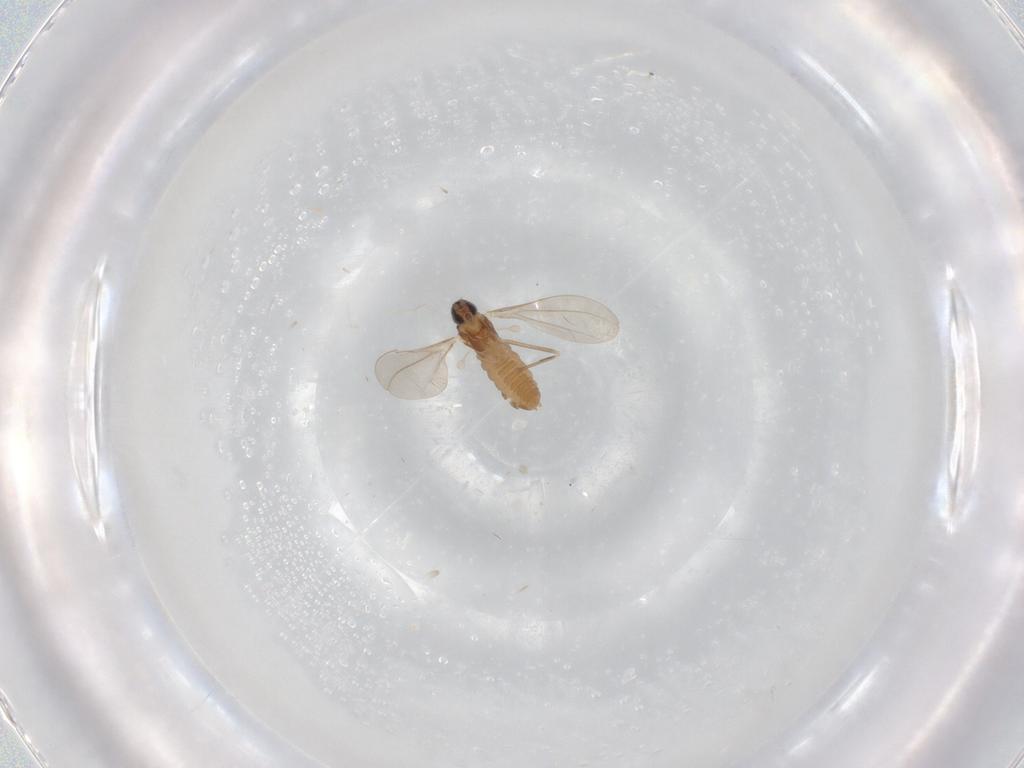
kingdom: Animalia
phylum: Arthropoda
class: Insecta
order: Diptera
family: Cecidomyiidae
